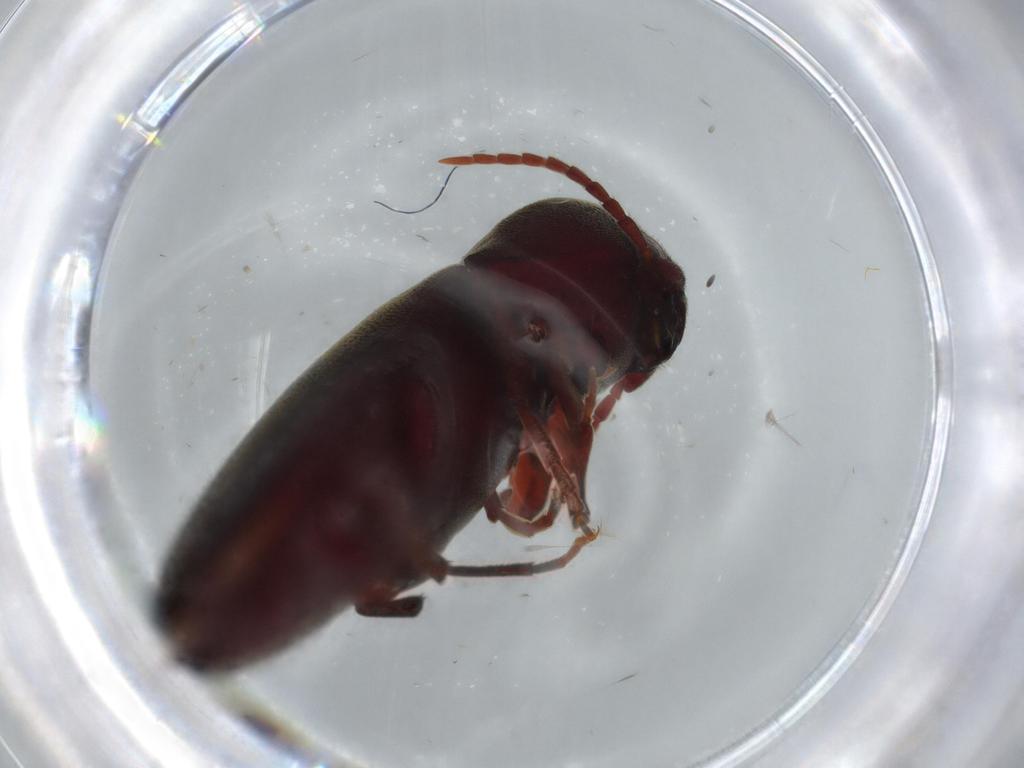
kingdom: Animalia
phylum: Arthropoda
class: Insecta
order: Coleoptera
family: Eucnemidae
